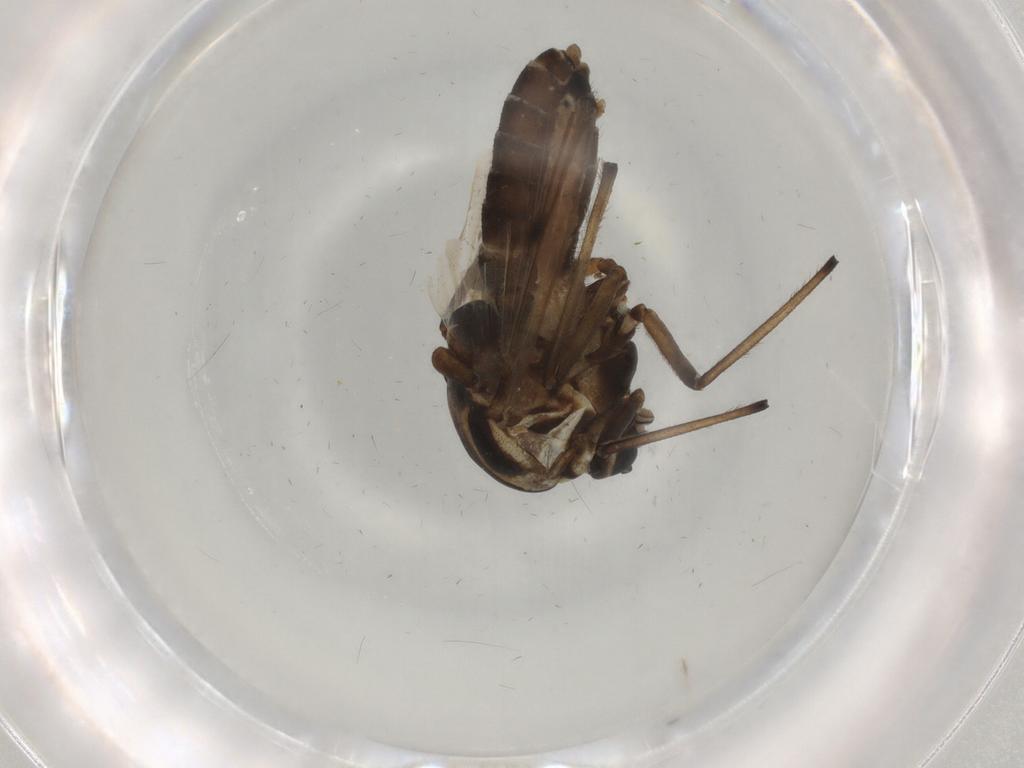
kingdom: Animalia
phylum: Arthropoda
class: Insecta
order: Diptera
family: Chironomidae
